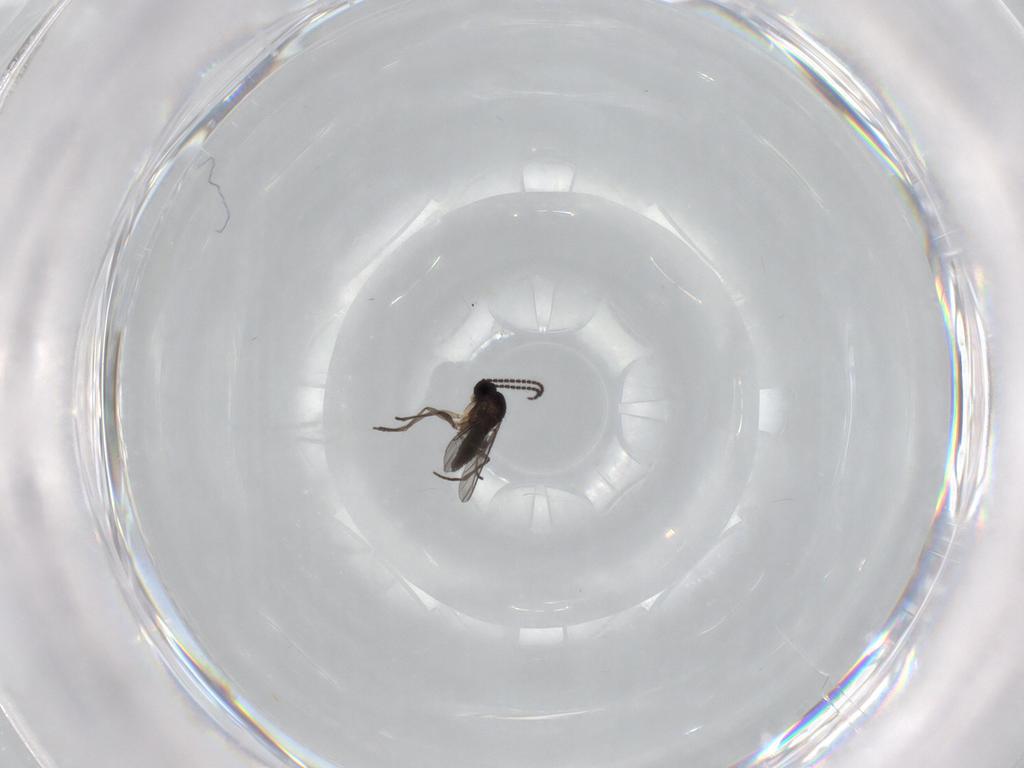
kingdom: Animalia
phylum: Arthropoda
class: Insecta
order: Diptera
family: Sciaridae
